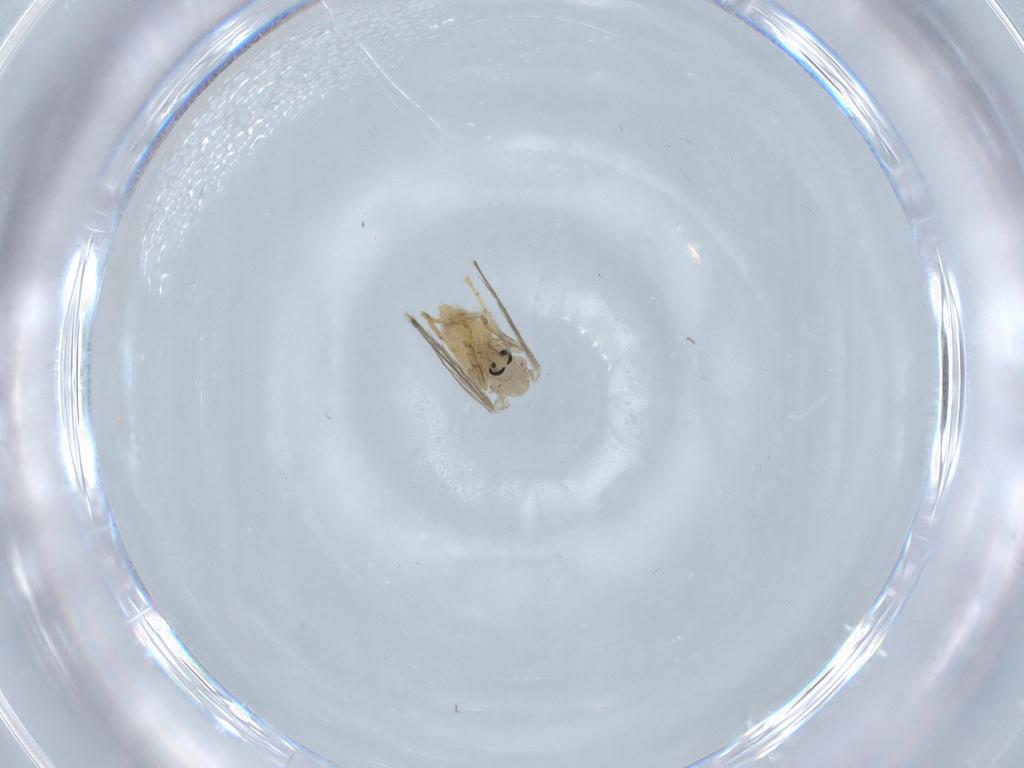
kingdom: Animalia
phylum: Arthropoda
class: Insecta
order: Diptera
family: Psychodidae
